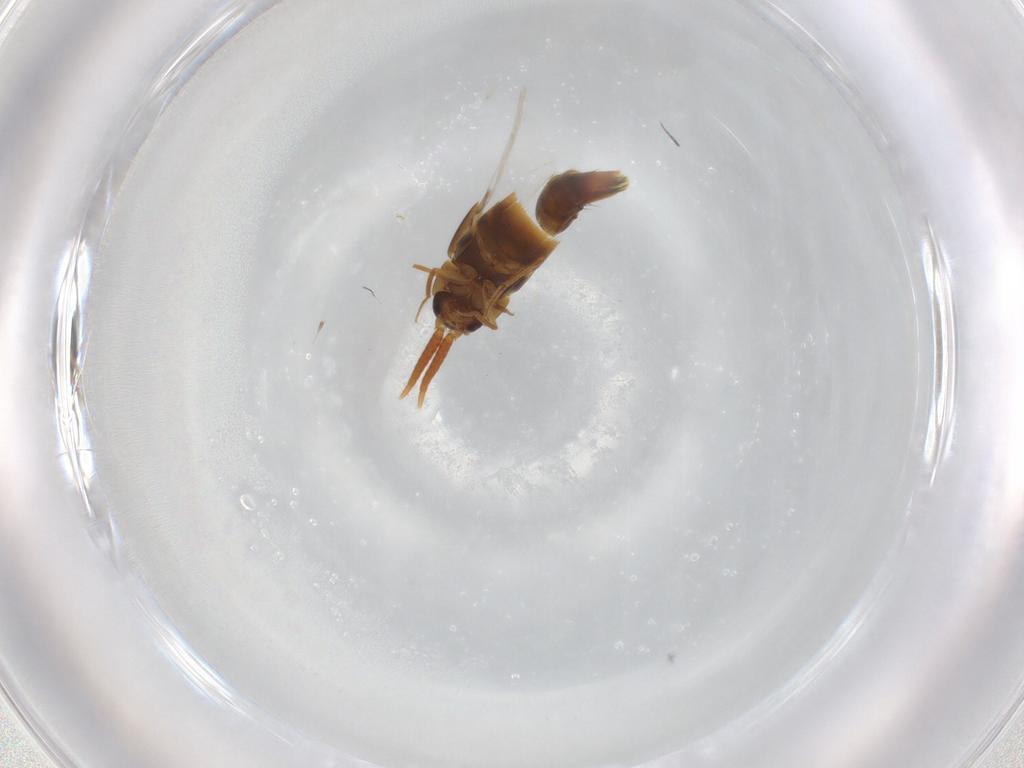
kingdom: Animalia
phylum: Arthropoda
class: Insecta
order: Coleoptera
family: Staphylinidae
